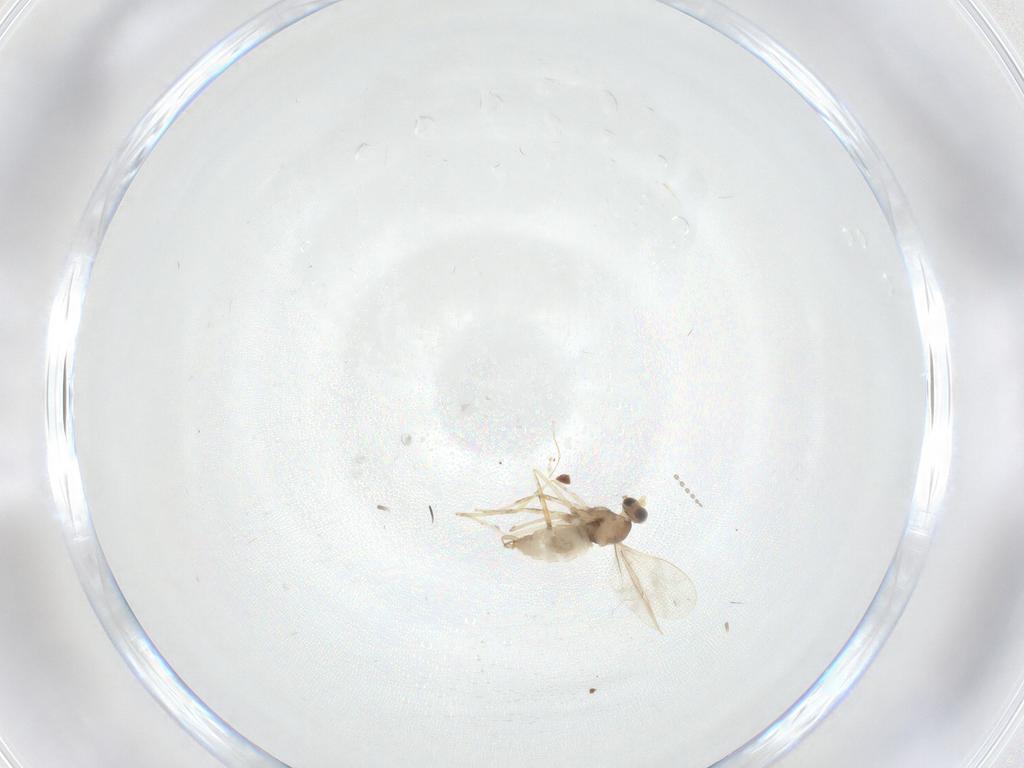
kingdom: Animalia
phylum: Arthropoda
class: Insecta
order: Diptera
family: Cecidomyiidae
